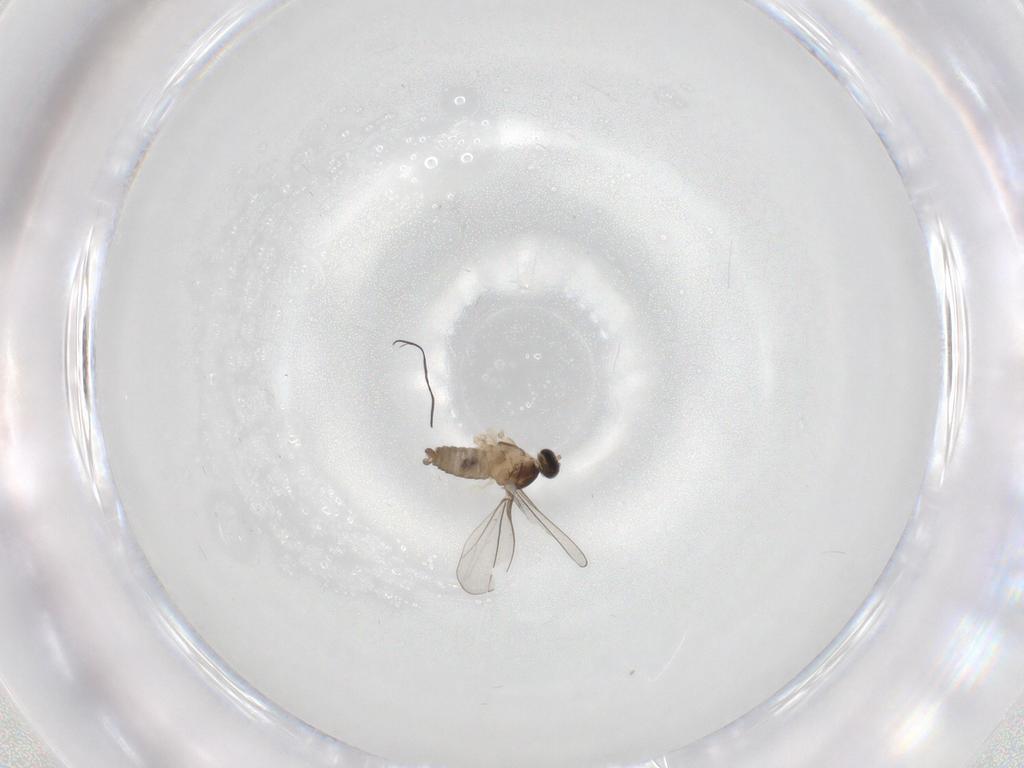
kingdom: Animalia
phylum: Arthropoda
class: Insecta
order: Diptera
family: Cecidomyiidae
